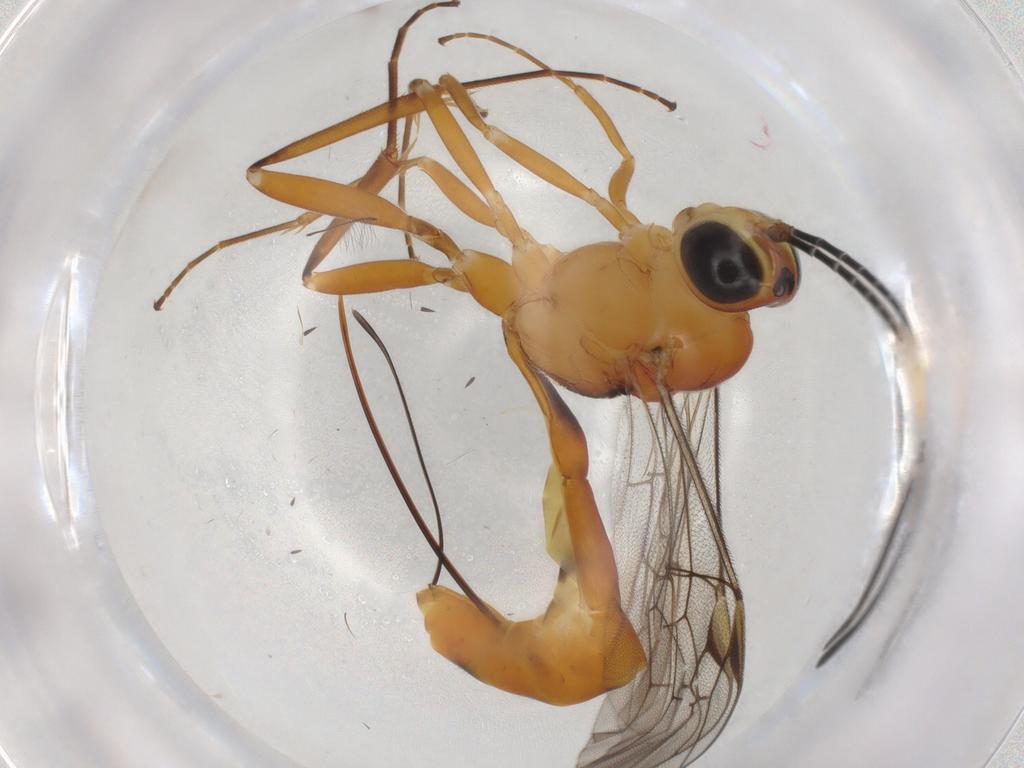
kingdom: Animalia
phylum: Arthropoda
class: Insecta
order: Hymenoptera
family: Ichneumonidae
